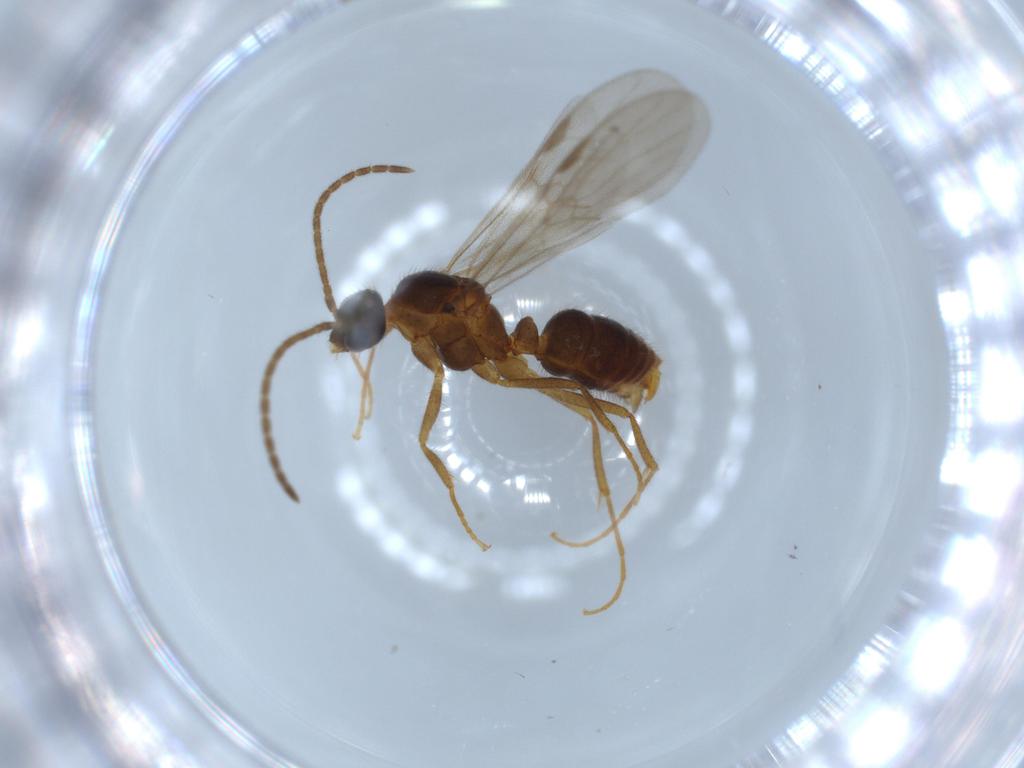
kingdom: Animalia
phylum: Arthropoda
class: Insecta
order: Hymenoptera
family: Formicidae
